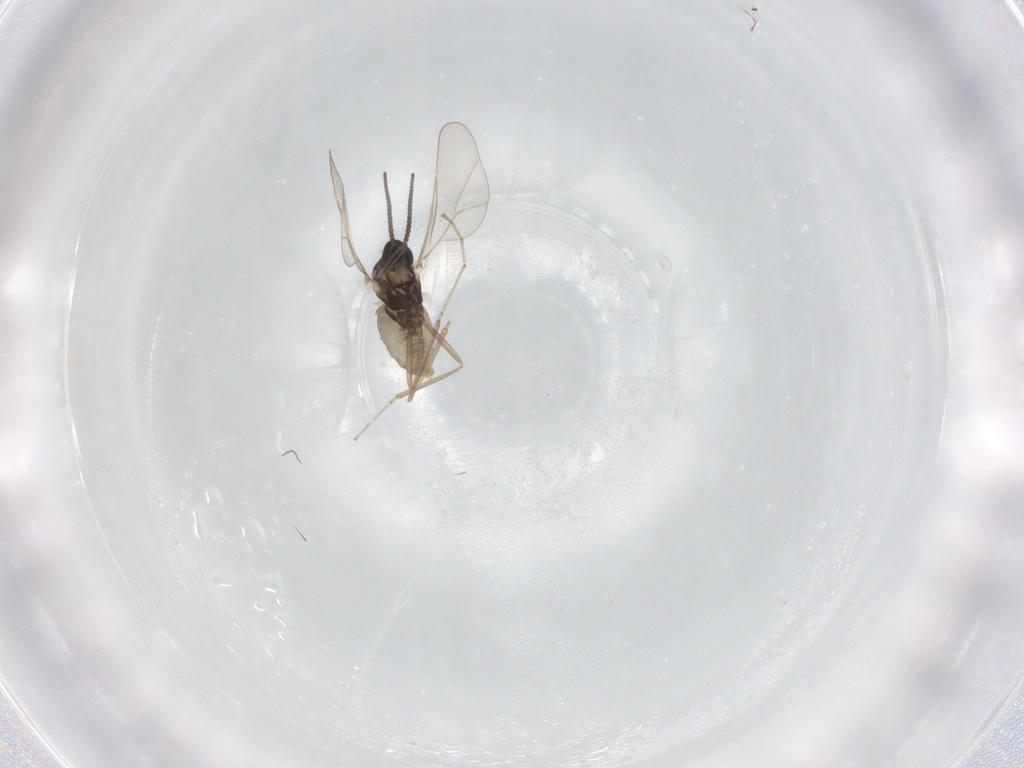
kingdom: Animalia
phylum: Arthropoda
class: Insecta
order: Diptera
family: Cecidomyiidae
